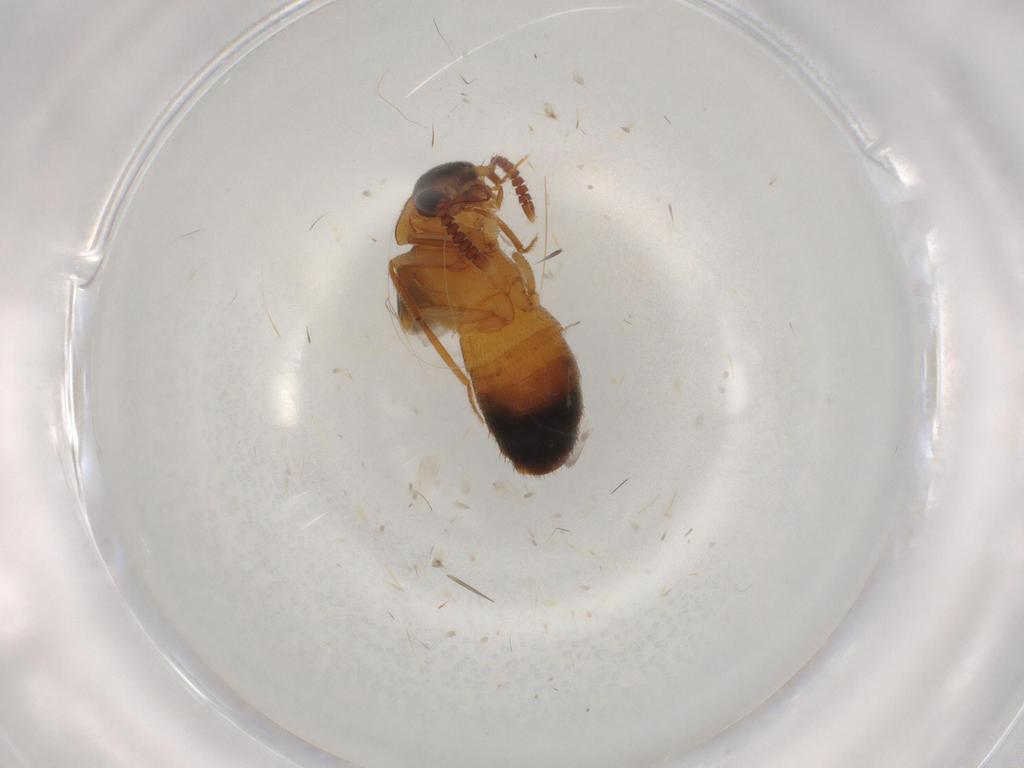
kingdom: Animalia
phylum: Arthropoda
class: Insecta
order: Coleoptera
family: Staphylinidae
